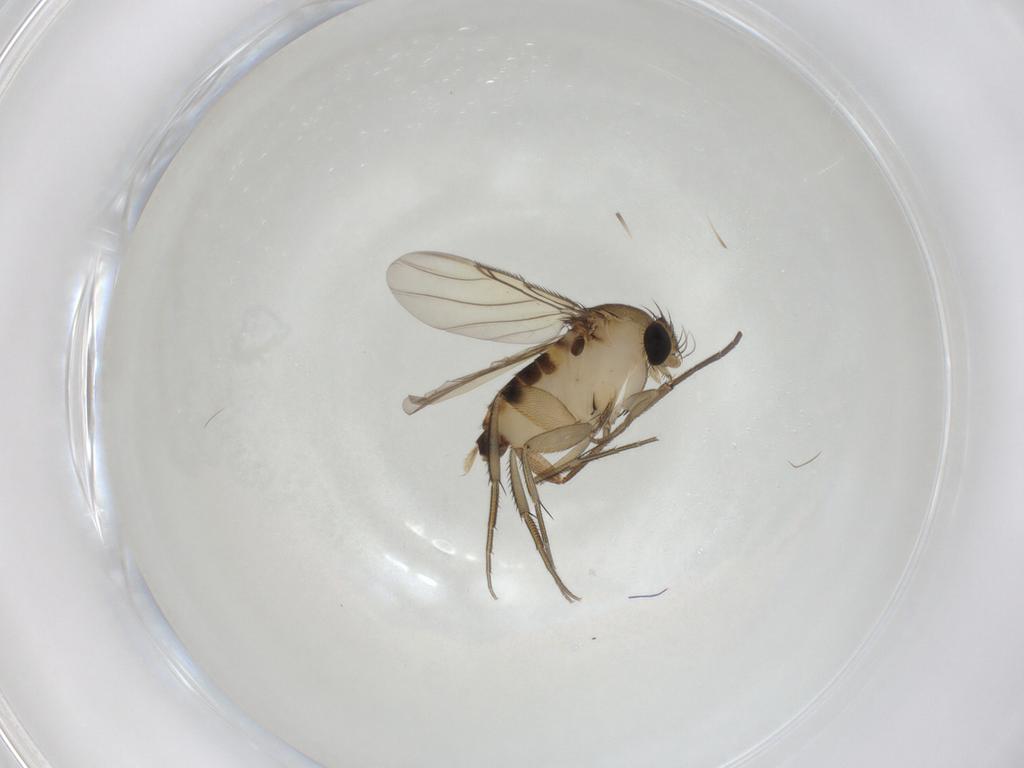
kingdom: Animalia
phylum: Arthropoda
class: Insecta
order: Diptera
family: Phoridae
